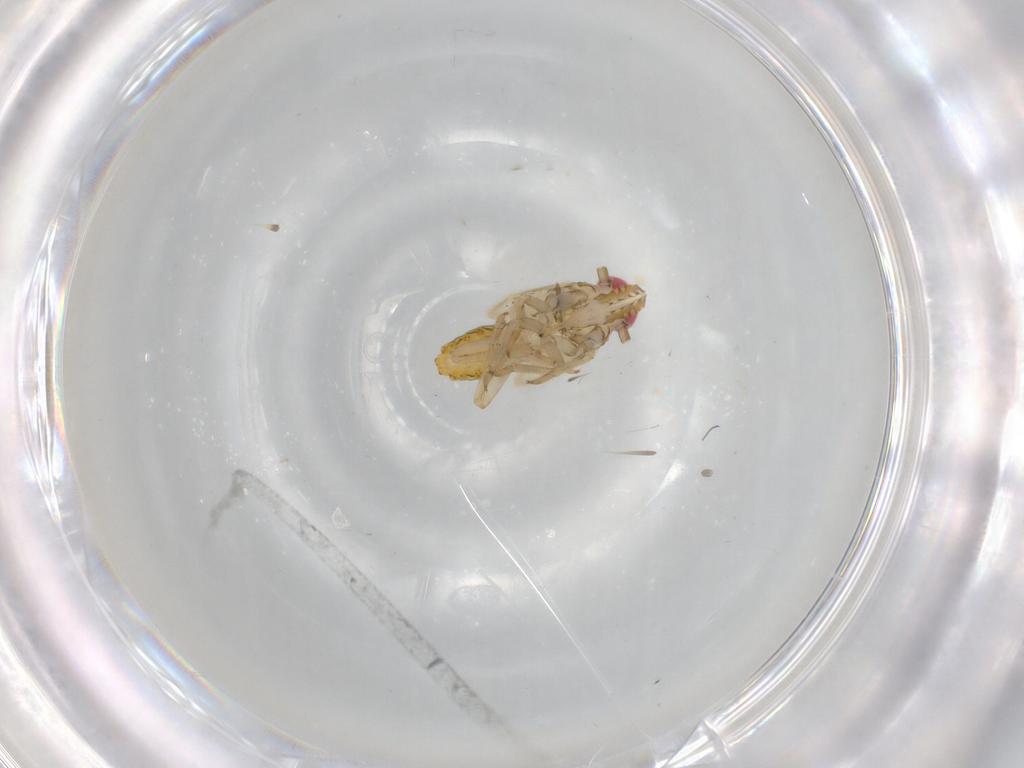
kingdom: Animalia
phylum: Arthropoda
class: Insecta
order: Hemiptera
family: Delphacidae
